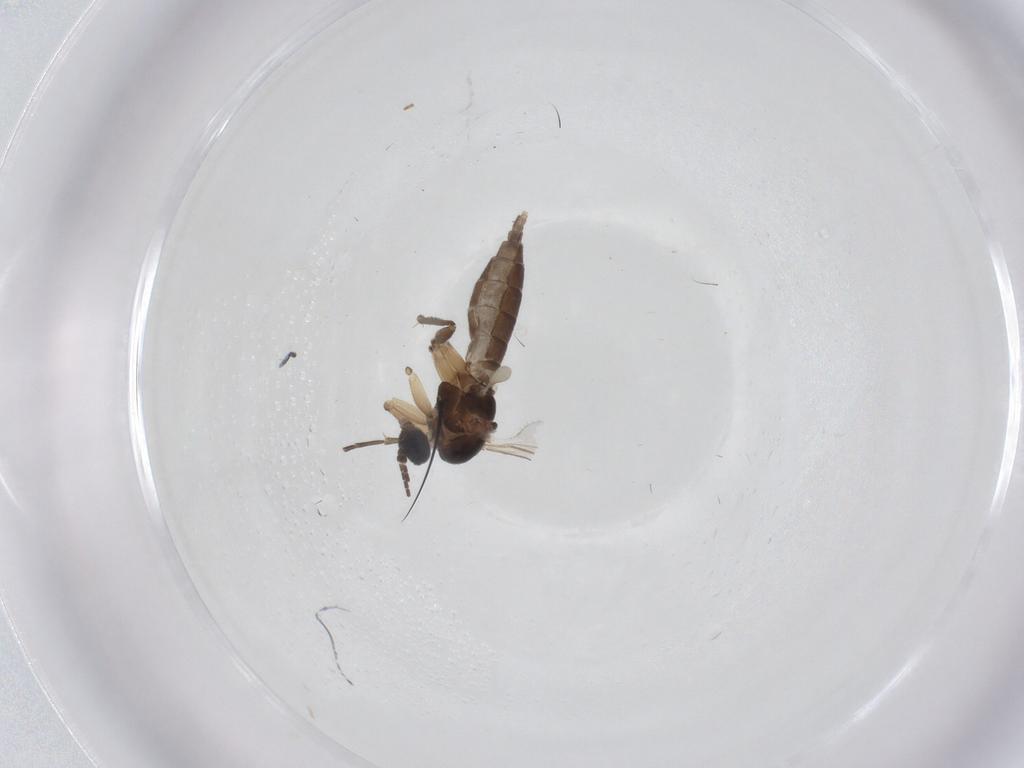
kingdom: Animalia
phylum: Arthropoda
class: Insecta
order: Diptera
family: Sciaridae
